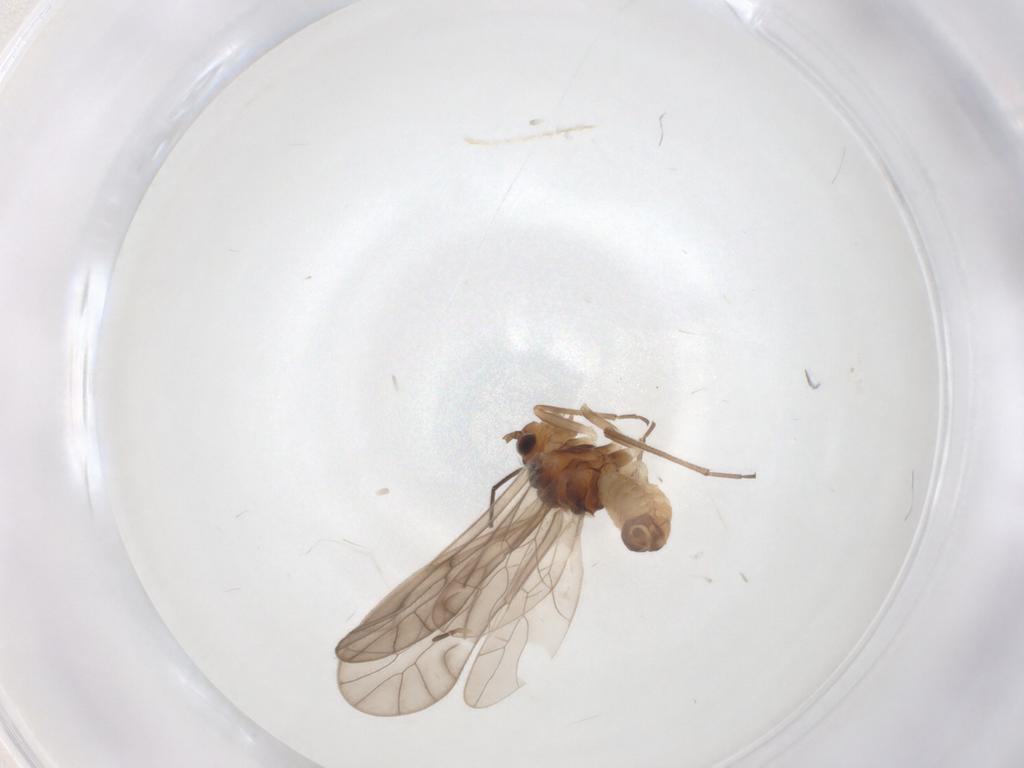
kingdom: Animalia
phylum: Arthropoda
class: Insecta
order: Psocodea
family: Philotarsidae
